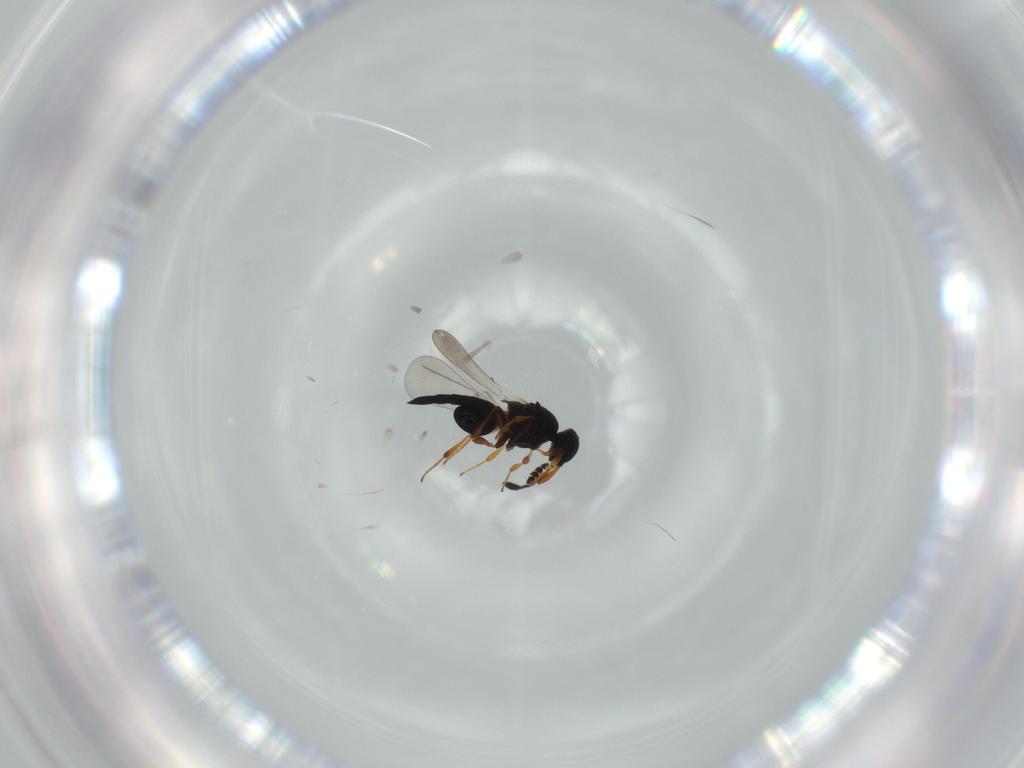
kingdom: Animalia
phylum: Arthropoda
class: Insecta
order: Hymenoptera
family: Platygastridae
